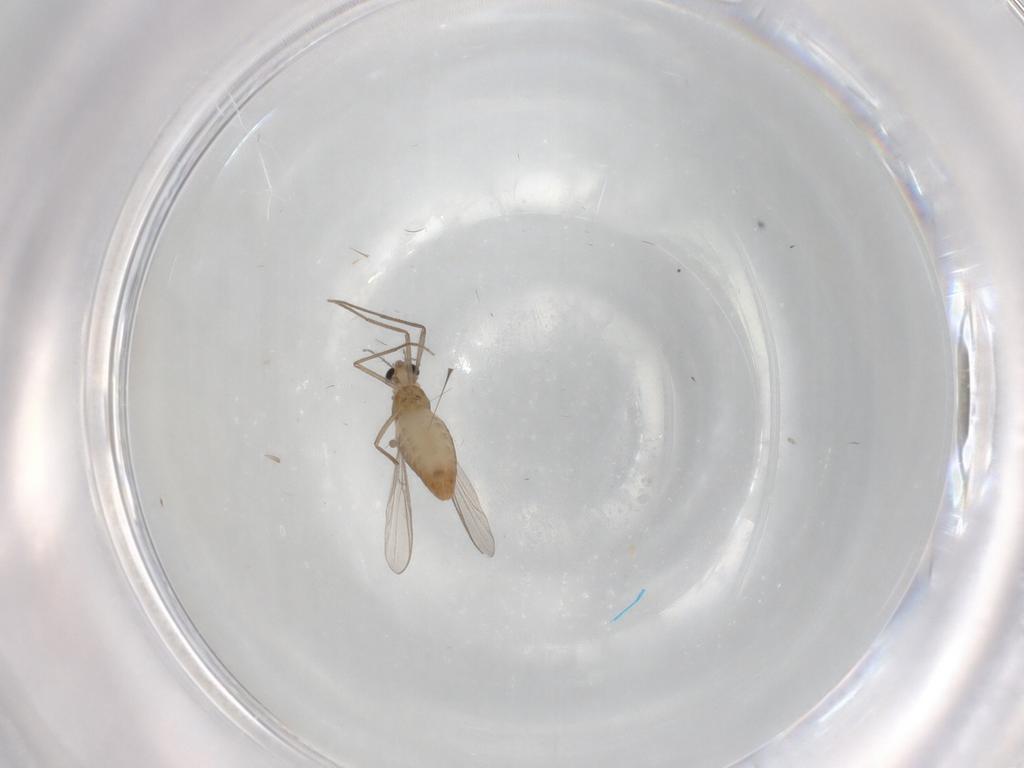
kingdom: Animalia
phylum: Arthropoda
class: Insecta
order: Diptera
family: Chironomidae
